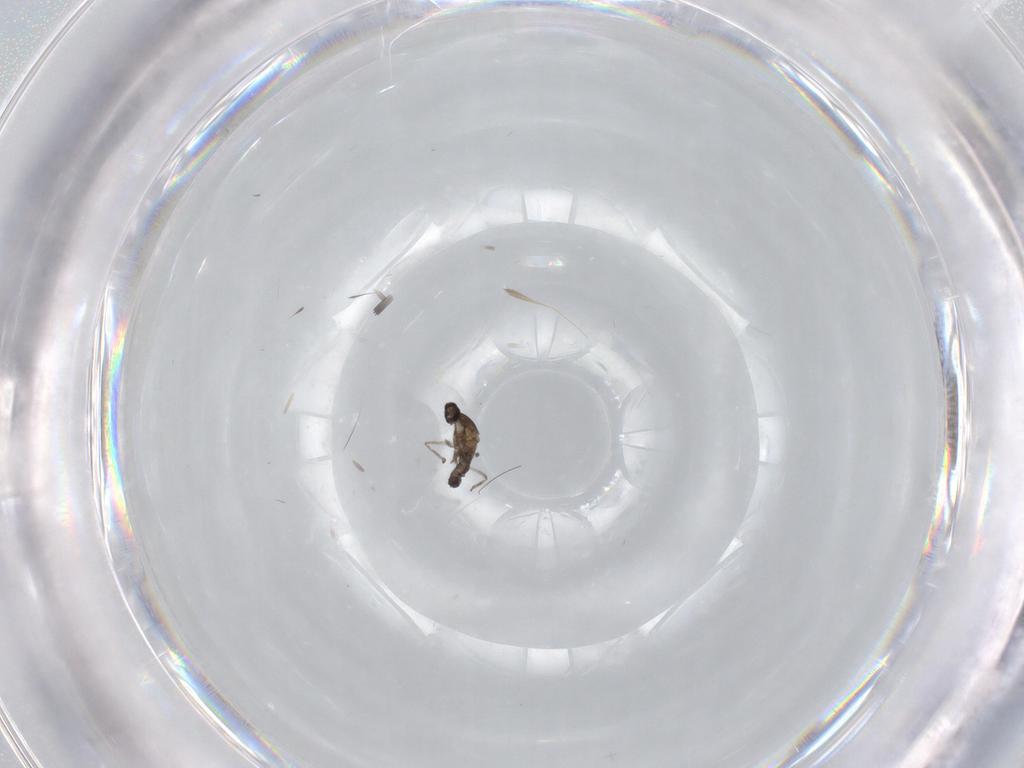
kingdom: Animalia
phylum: Arthropoda
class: Insecta
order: Diptera
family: Cecidomyiidae
